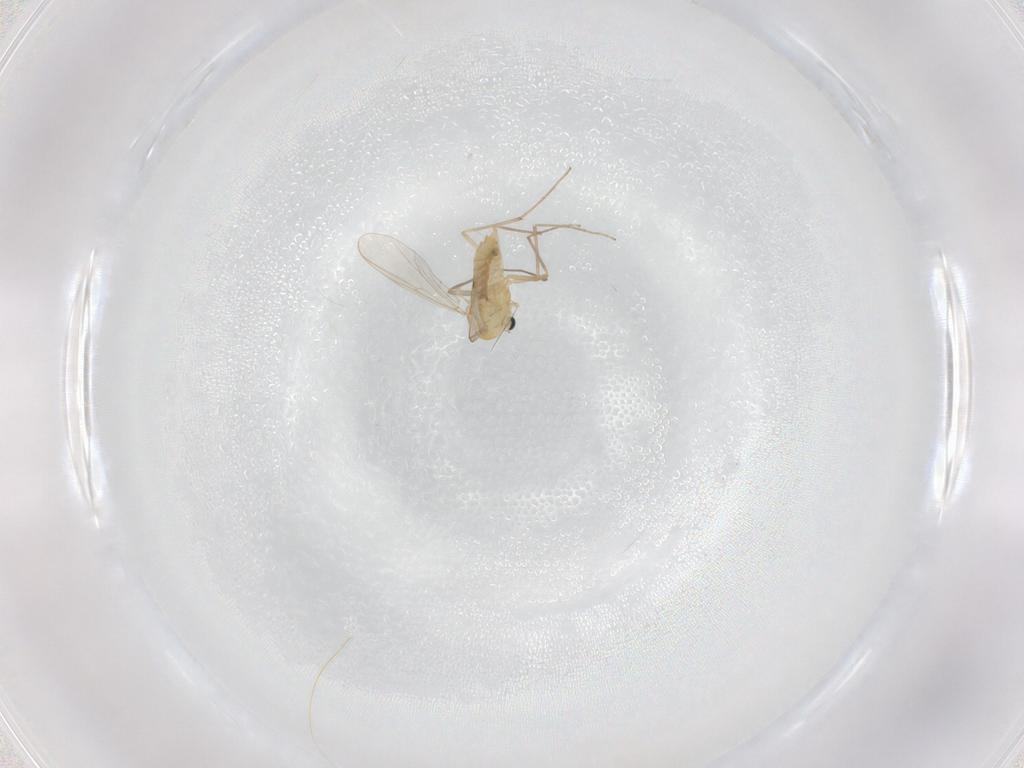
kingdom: Animalia
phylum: Arthropoda
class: Insecta
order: Diptera
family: Chironomidae
